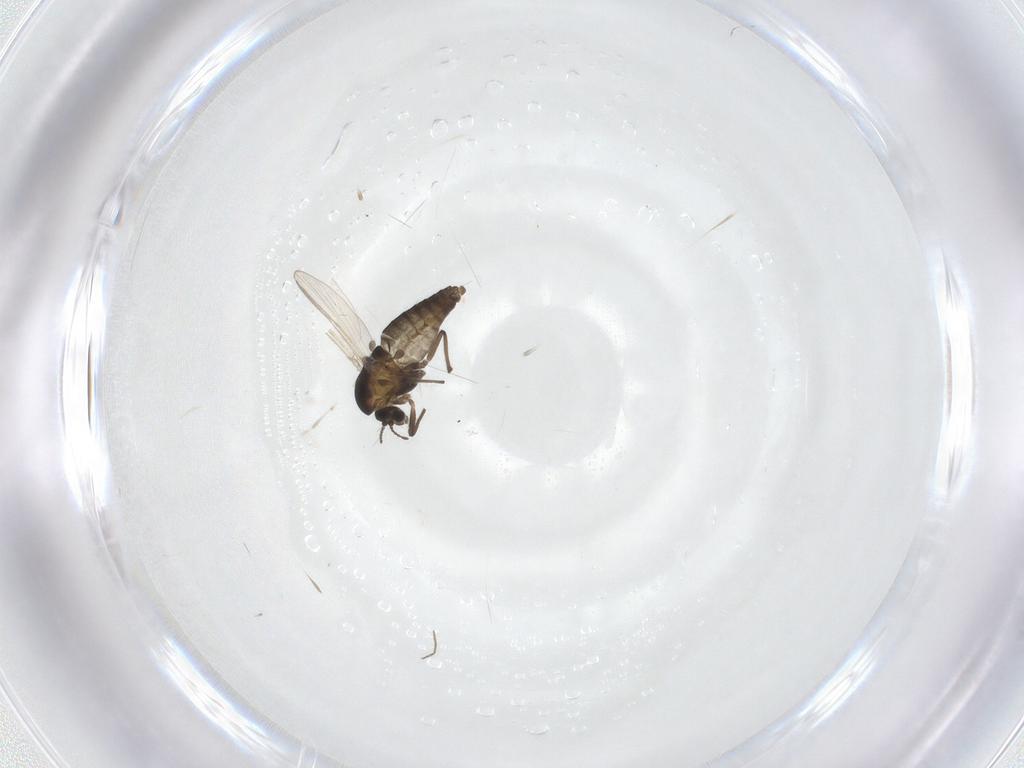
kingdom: Animalia
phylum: Arthropoda
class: Insecta
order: Diptera
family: Chironomidae
